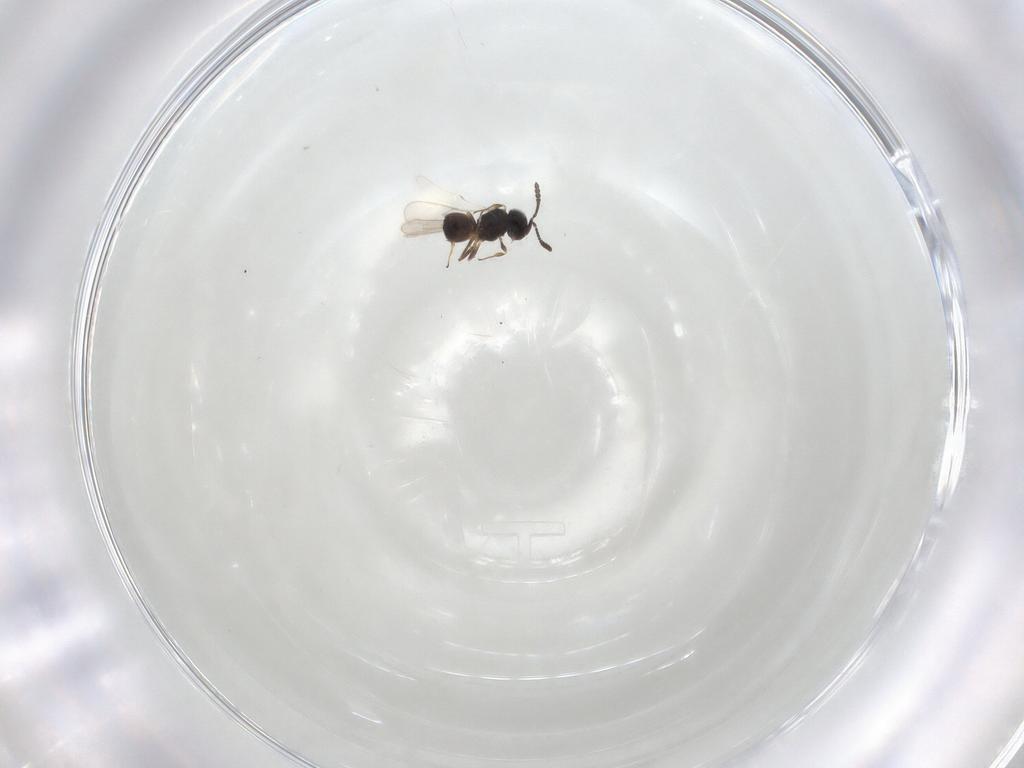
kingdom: Animalia
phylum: Arthropoda
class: Insecta
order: Hymenoptera
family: Scelionidae
